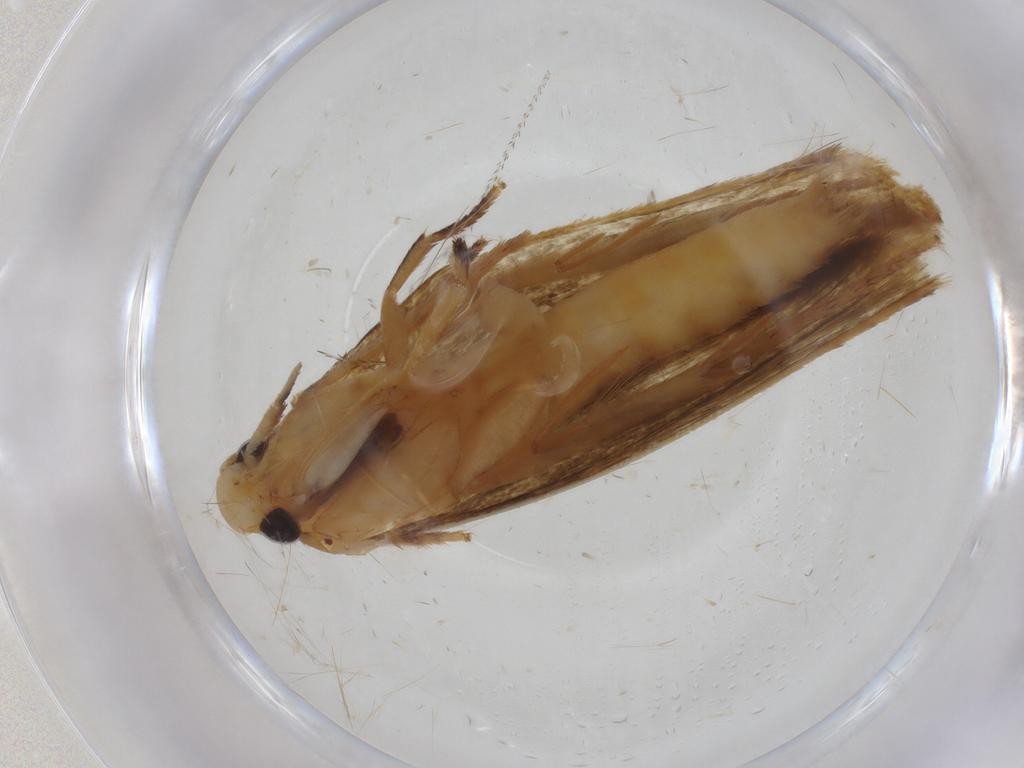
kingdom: Animalia
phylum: Arthropoda
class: Insecta
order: Lepidoptera
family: Tineidae
